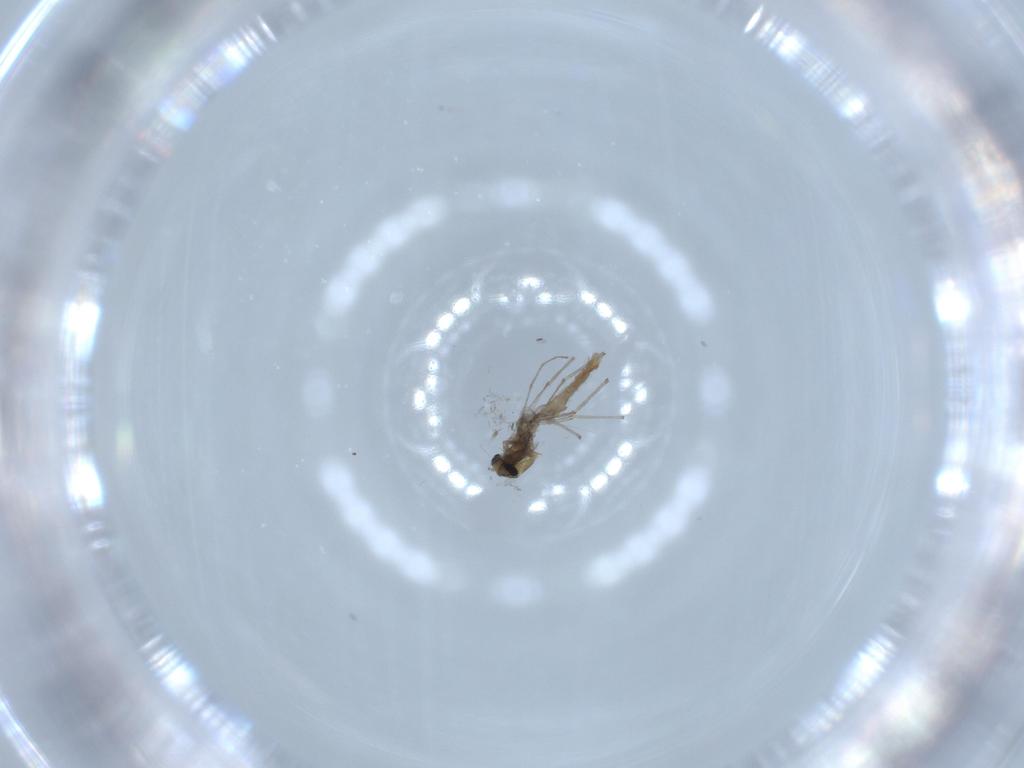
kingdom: Animalia
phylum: Arthropoda
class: Insecta
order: Diptera
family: Chironomidae
